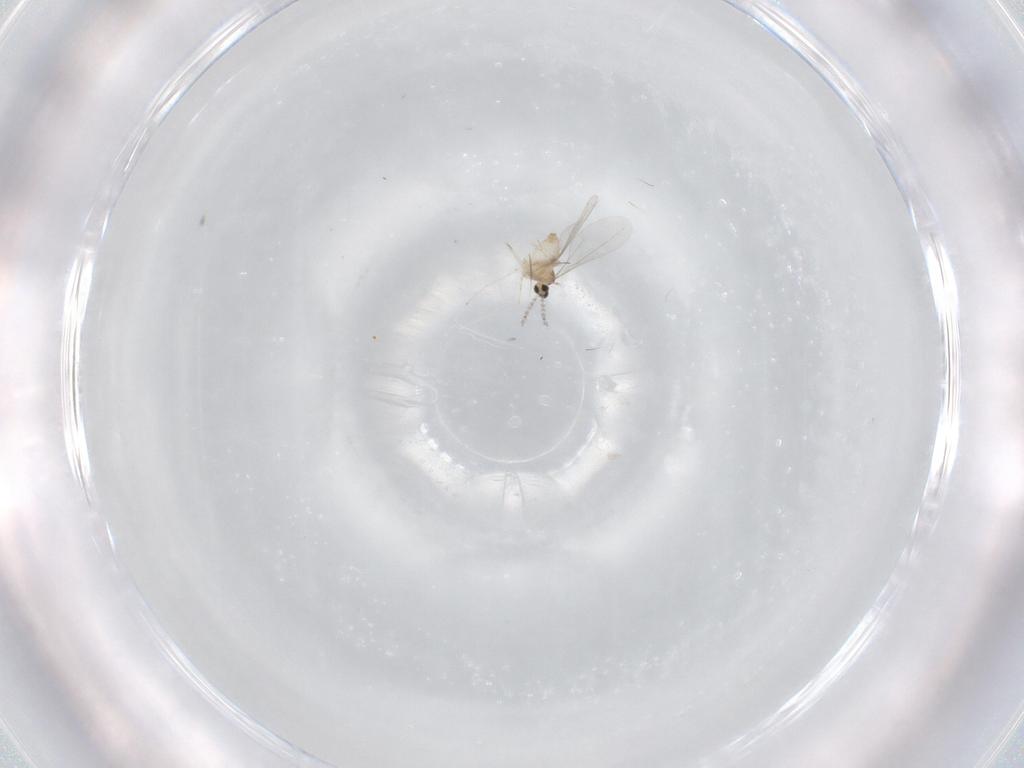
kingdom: Animalia
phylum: Arthropoda
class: Insecta
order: Diptera
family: Cecidomyiidae
